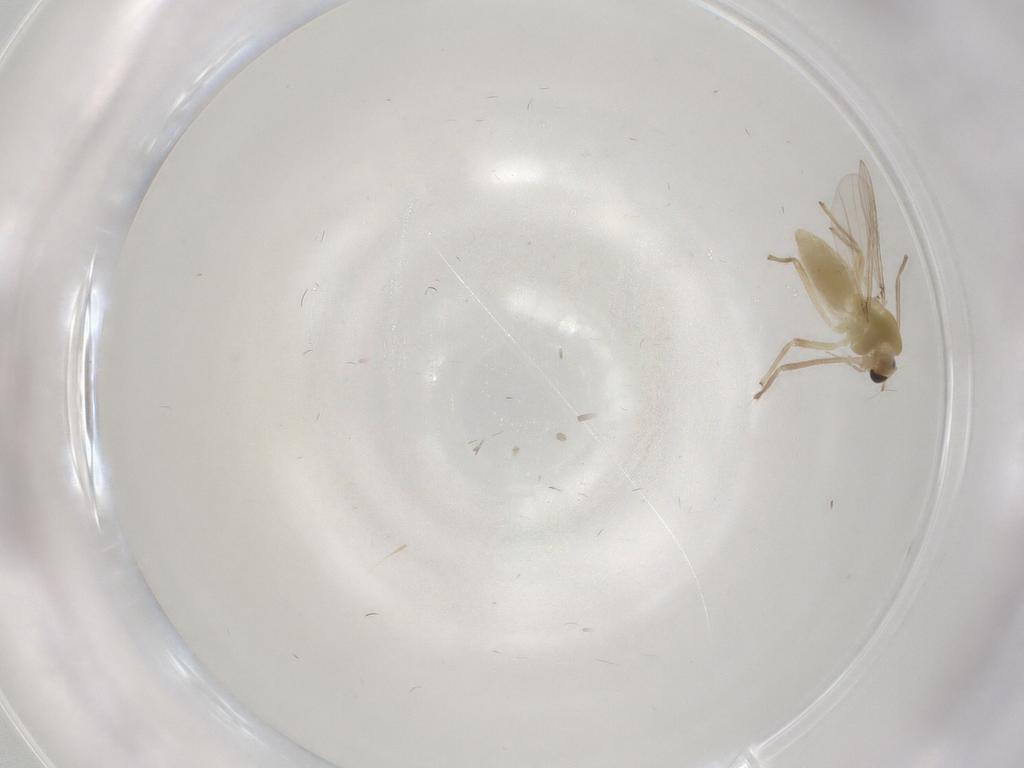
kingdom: Animalia
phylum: Arthropoda
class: Insecta
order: Diptera
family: Chironomidae
